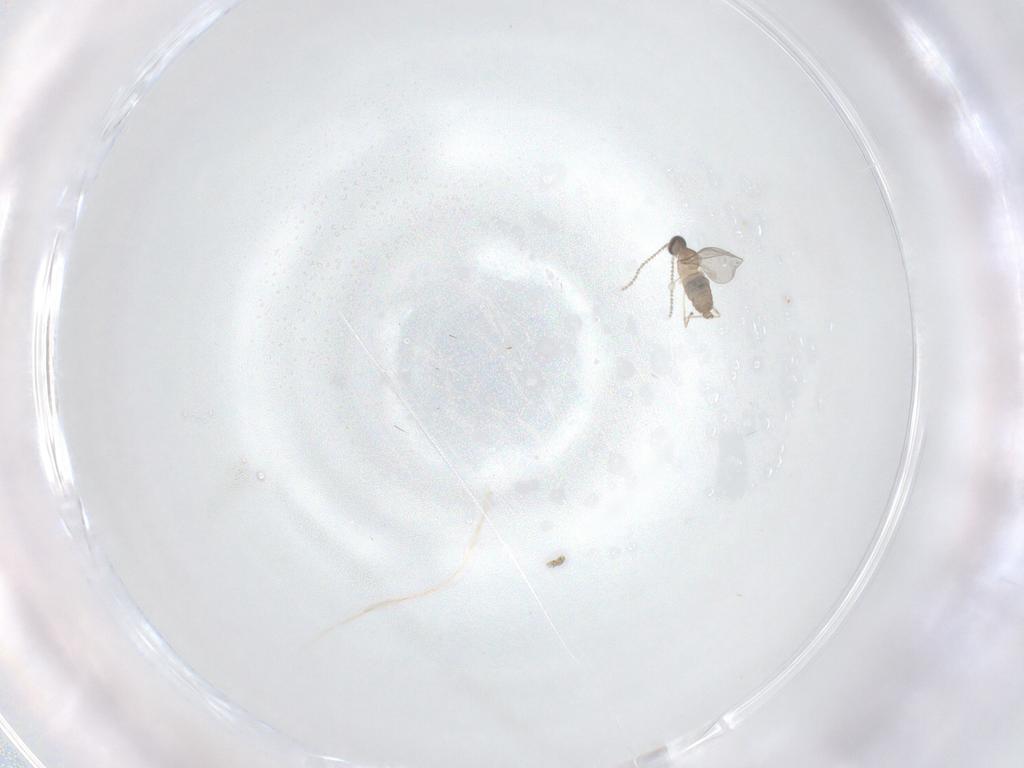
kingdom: Animalia
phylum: Arthropoda
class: Insecta
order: Diptera
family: Cecidomyiidae
